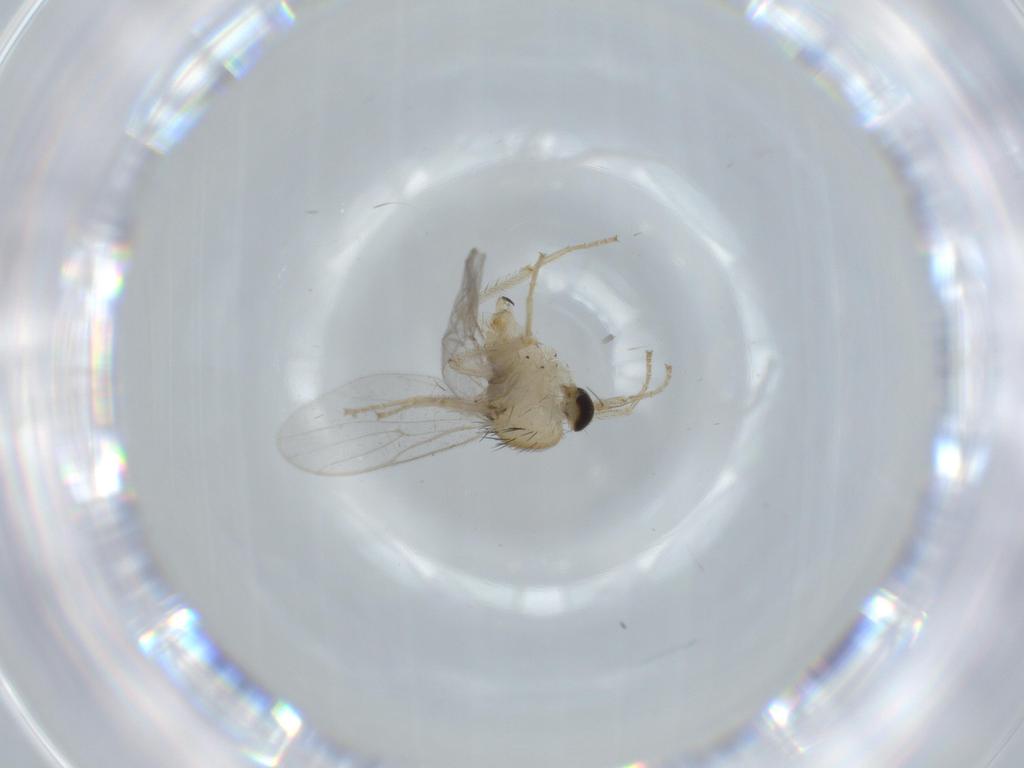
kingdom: Animalia
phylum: Arthropoda
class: Insecta
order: Diptera
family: Hybotidae
